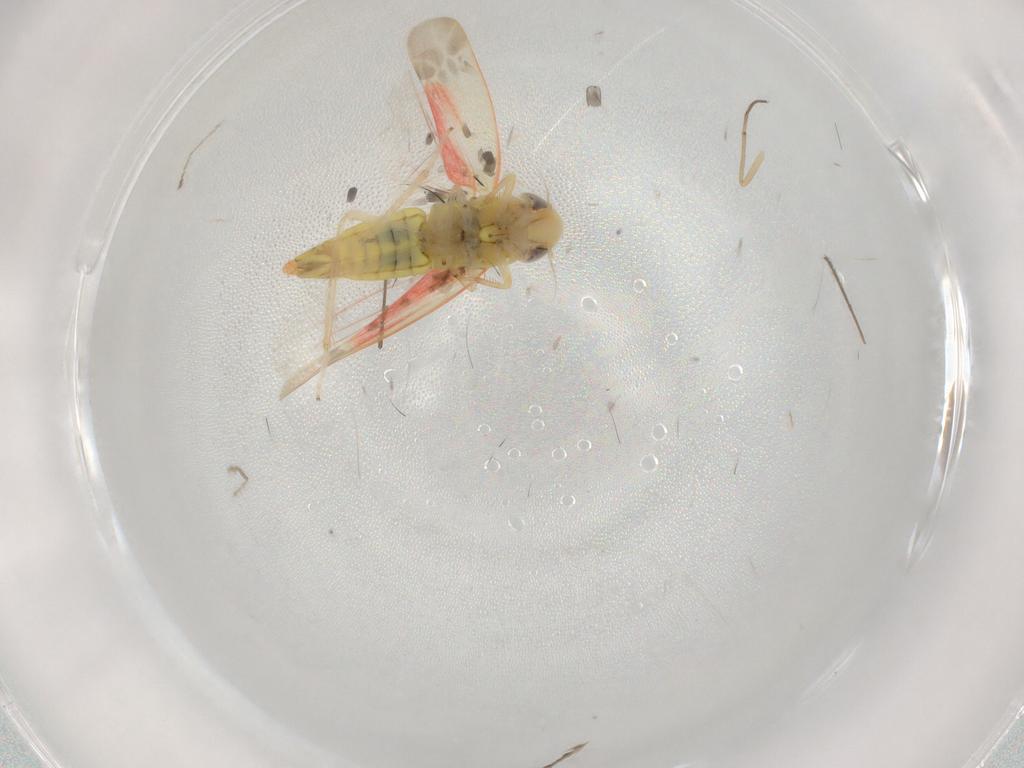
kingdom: Animalia
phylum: Arthropoda
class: Insecta
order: Hemiptera
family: Cicadellidae
